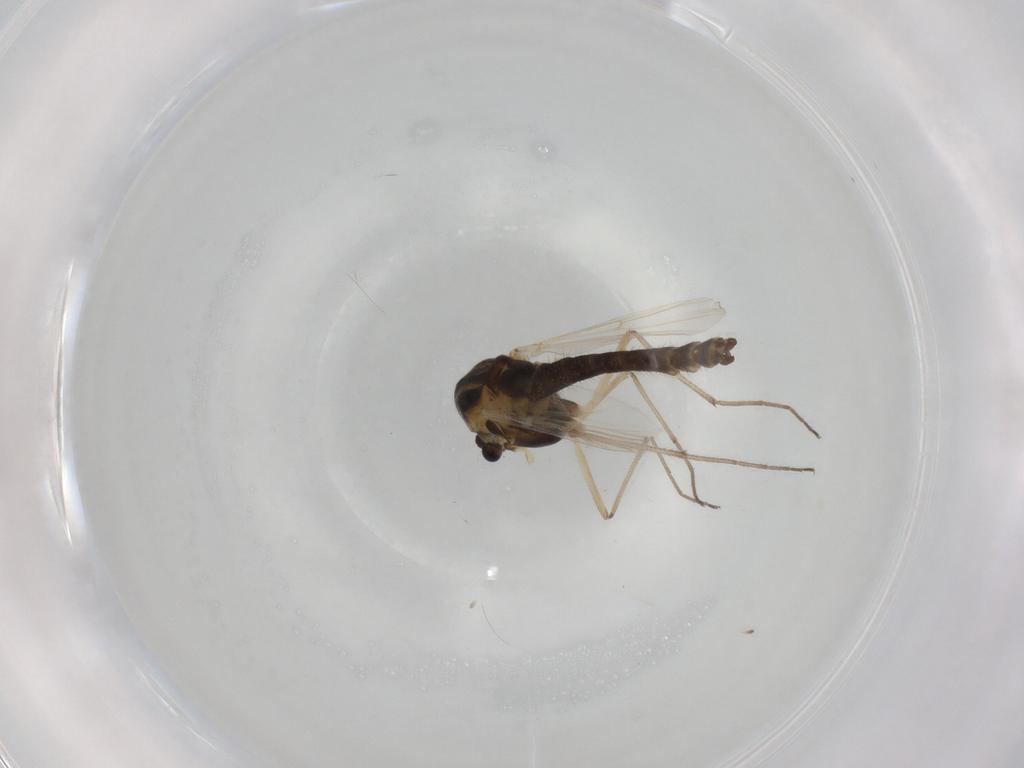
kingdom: Animalia
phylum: Arthropoda
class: Insecta
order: Diptera
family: Chironomidae
